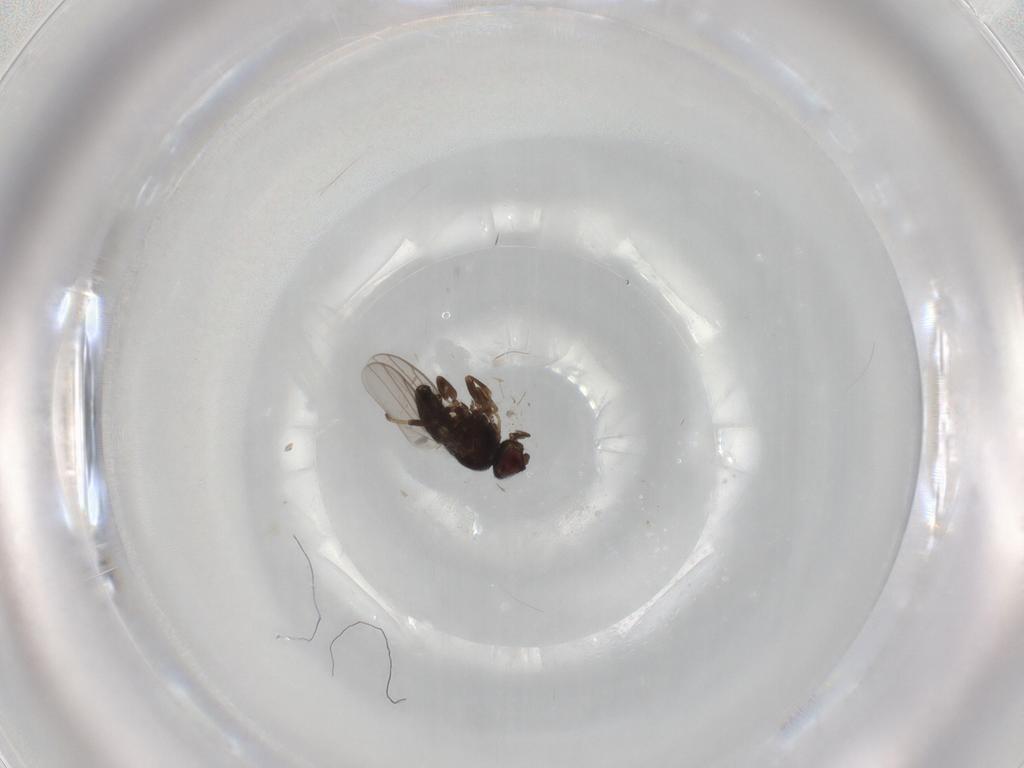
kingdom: Animalia
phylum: Arthropoda
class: Insecta
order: Diptera
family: Chloropidae
